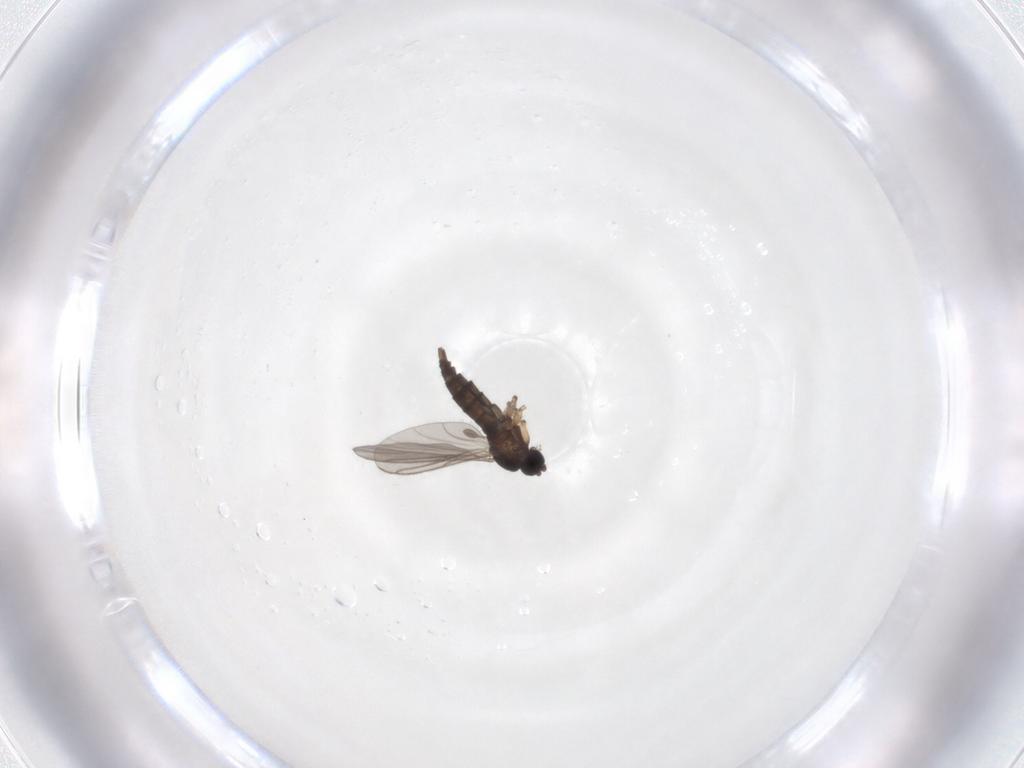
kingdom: Animalia
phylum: Arthropoda
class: Insecta
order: Diptera
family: Sciaridae
